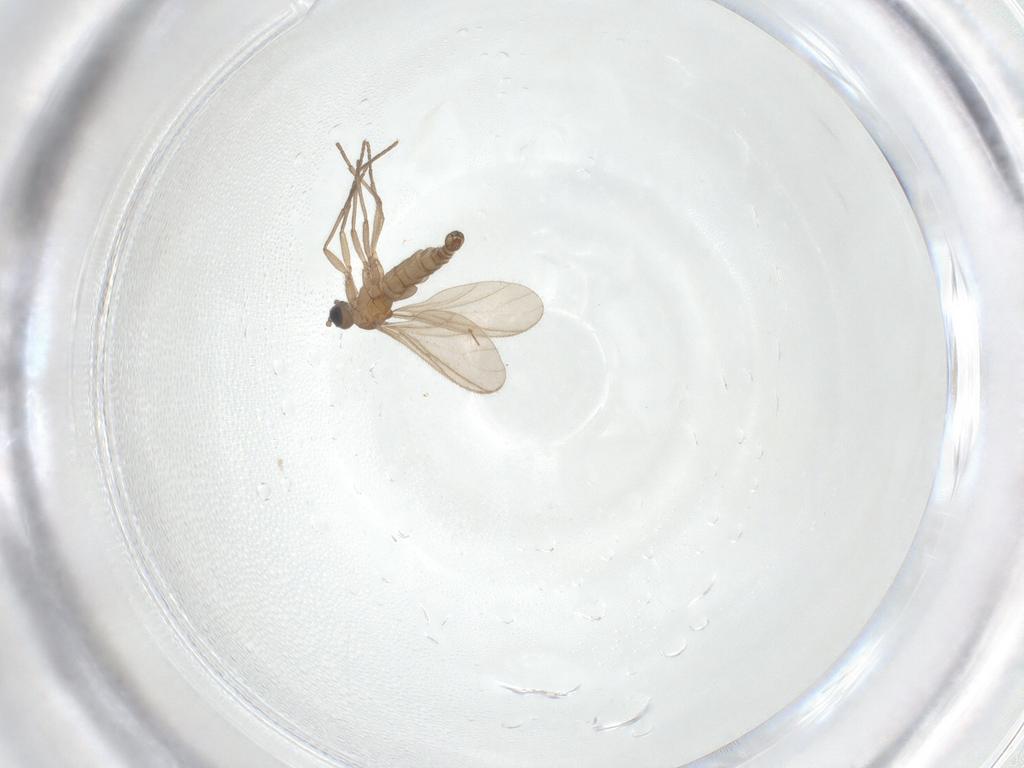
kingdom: Animalia
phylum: Arthropoda
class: Insecta
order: Diptera
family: Sciaridae
